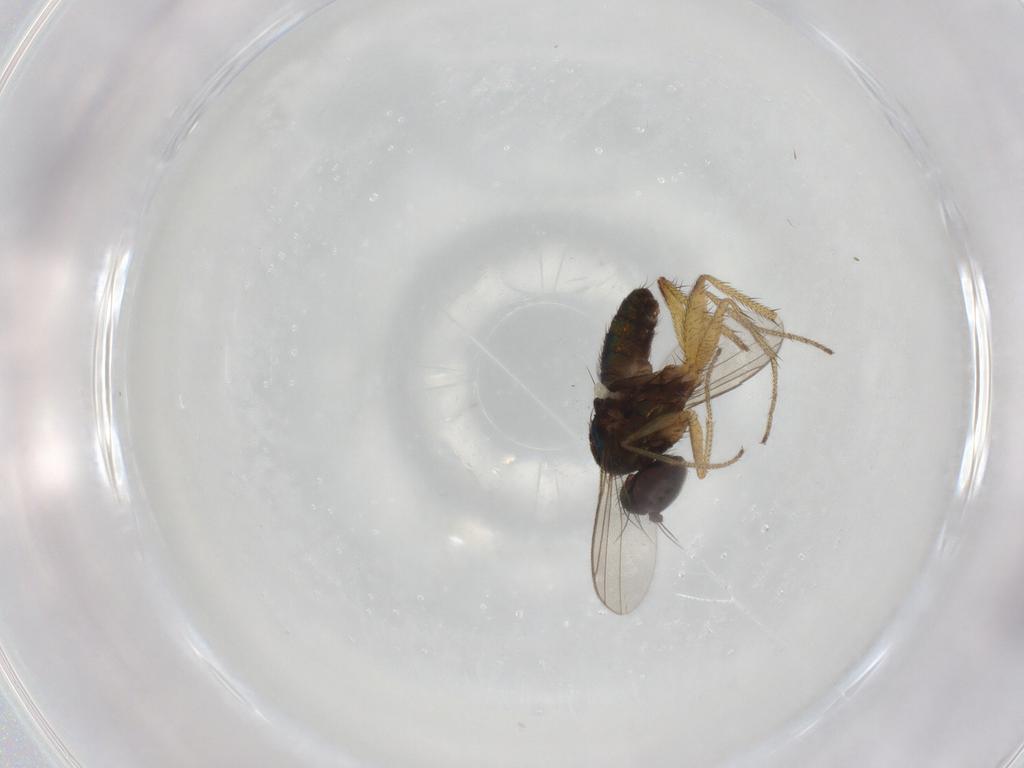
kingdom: Animalia
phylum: Arthropoda
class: Insecta
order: Diptera
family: Dolichopodidae
